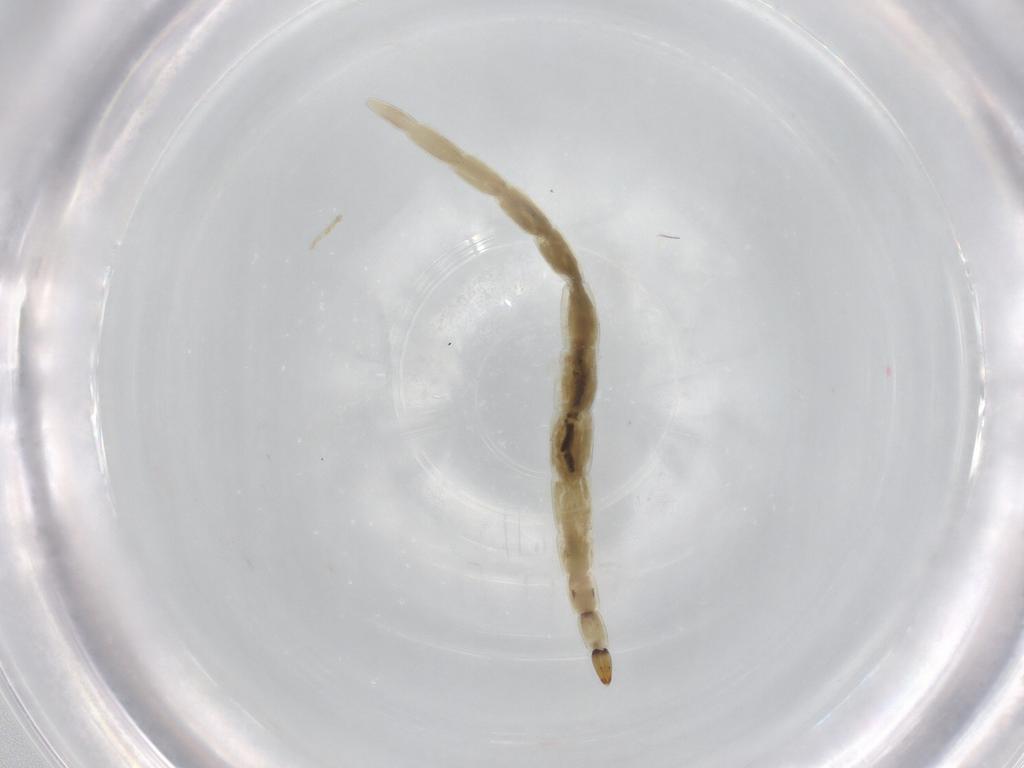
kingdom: Animalia
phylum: Arthropoda
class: Insecta
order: Diptera
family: Ceratopogonidae
